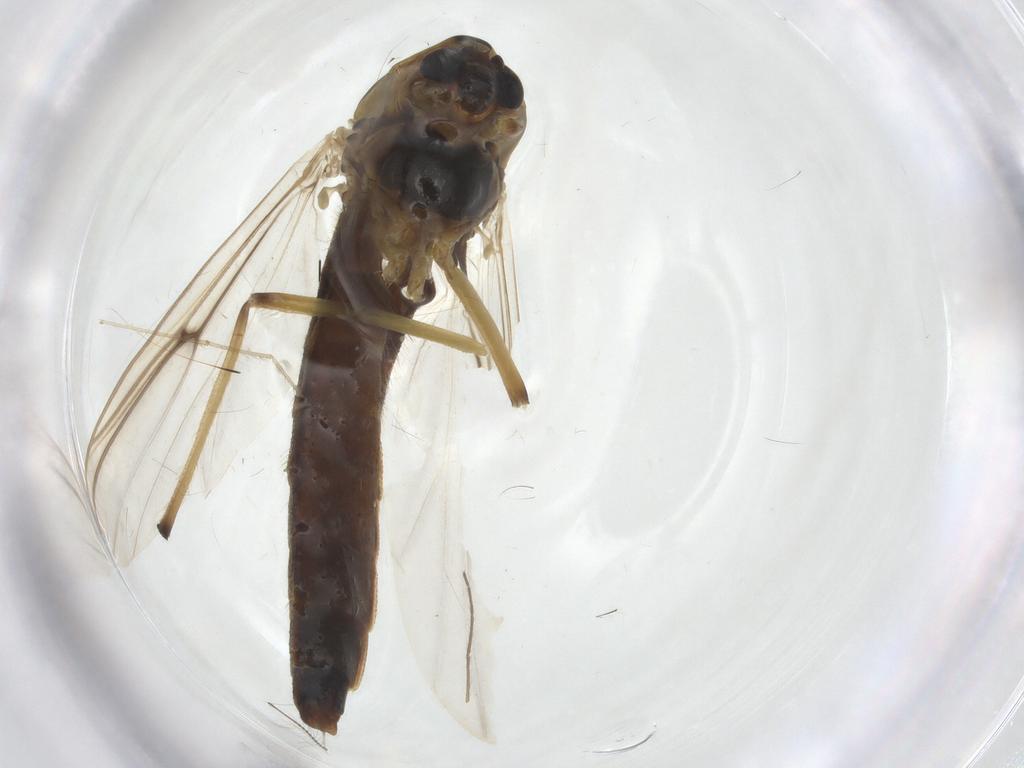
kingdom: Animalia
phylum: Arthropoda
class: Insecta
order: Diptera
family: Chironomidae
